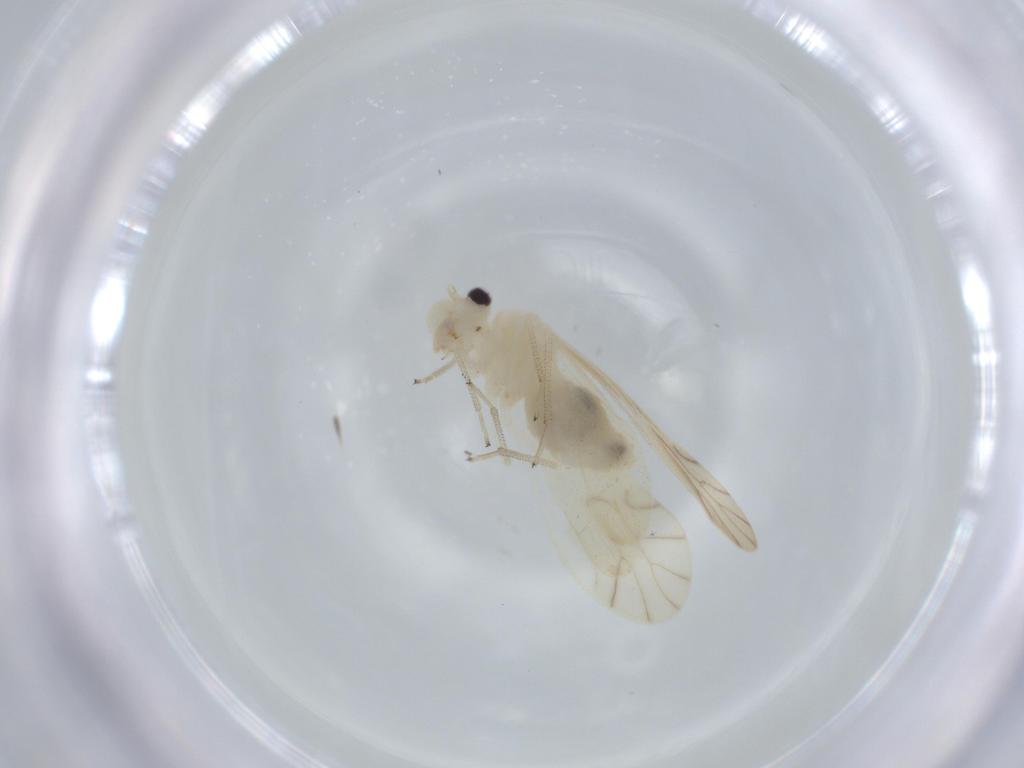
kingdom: Animalia
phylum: Arthropoda
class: Insecta
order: Psocodea
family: Caeciliusidae
